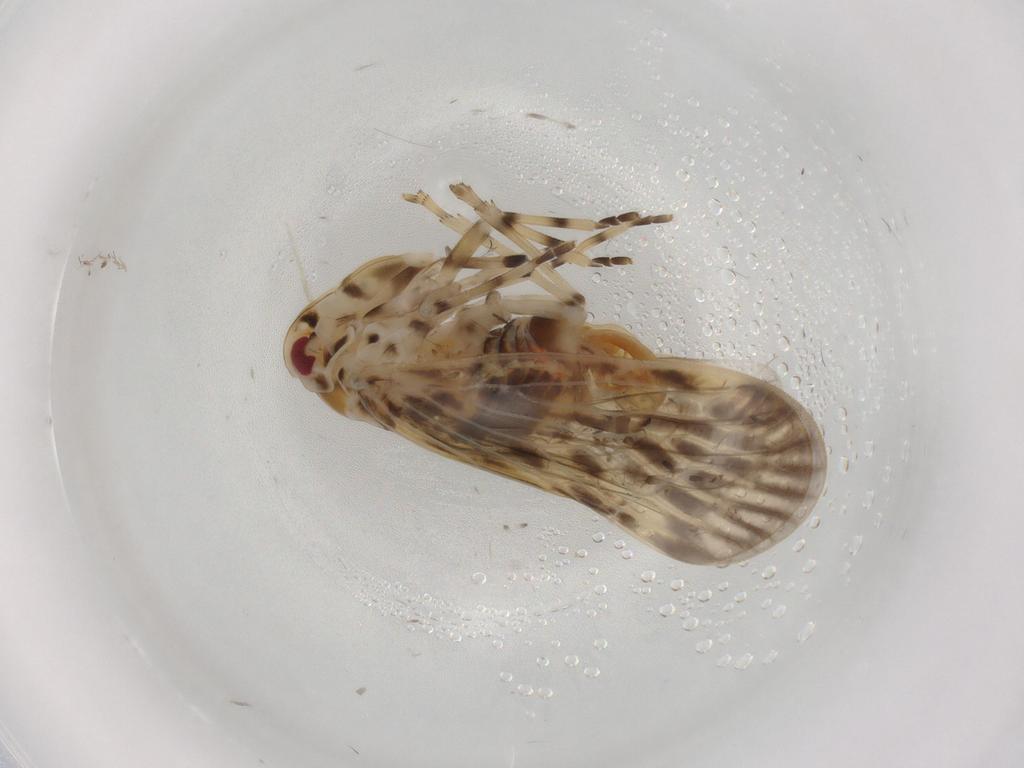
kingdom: Animalia
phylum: Arthropoda
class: Insecta
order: Hemiptera
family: Derbidae
